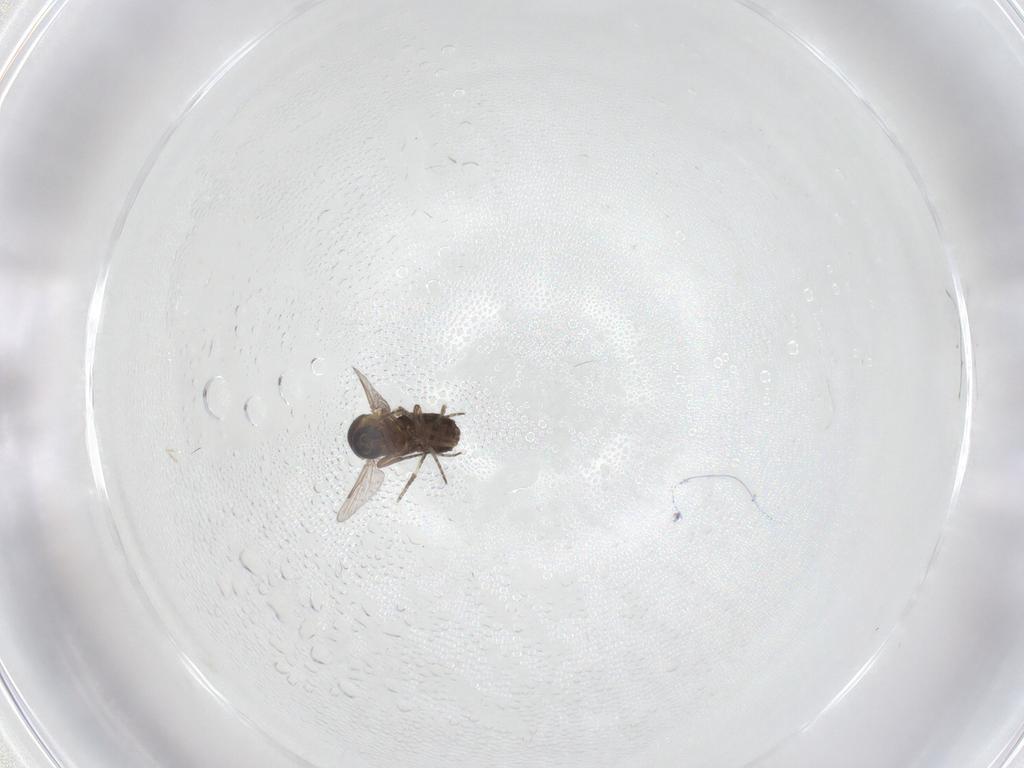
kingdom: Animalia
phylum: Arthropoda
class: Insecta
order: Diptera
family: Ceratopogonidae
